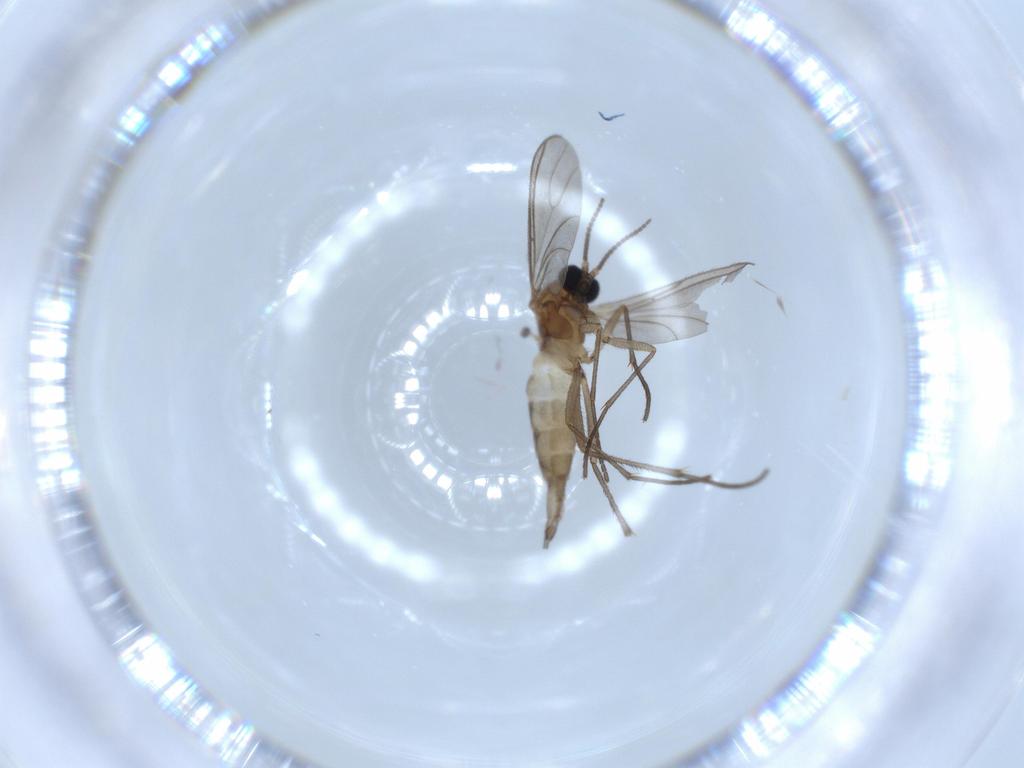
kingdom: Animalia
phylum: Arthropoda
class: Insecta
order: Diptera
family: Sciaridae
